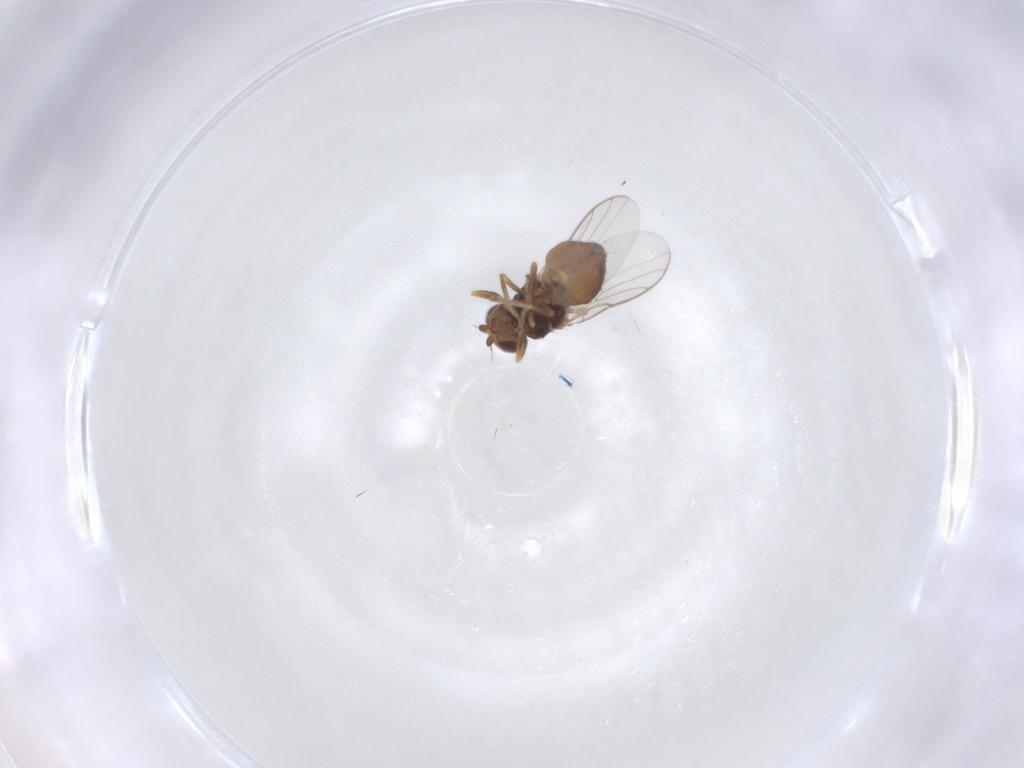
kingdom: Animalia
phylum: Arthropoda
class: Insecta
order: Diptera
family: Chloropidae
